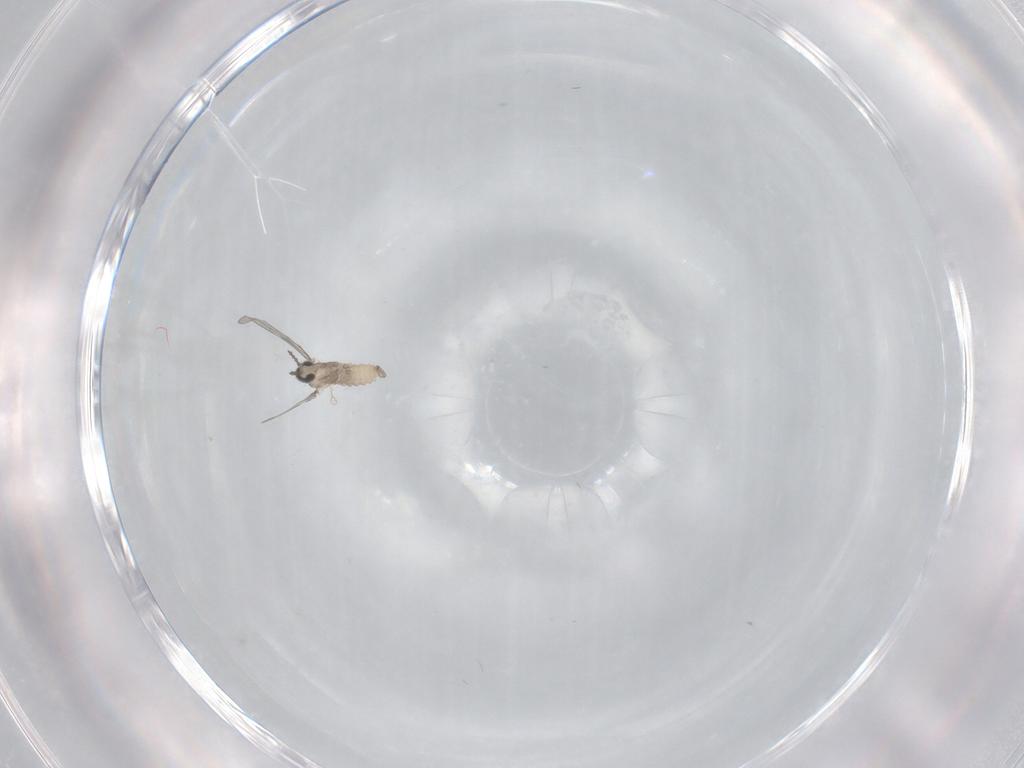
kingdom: Animalia
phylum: Arthropoda
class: Insecta
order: Diptera
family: Cecidomyiidae
